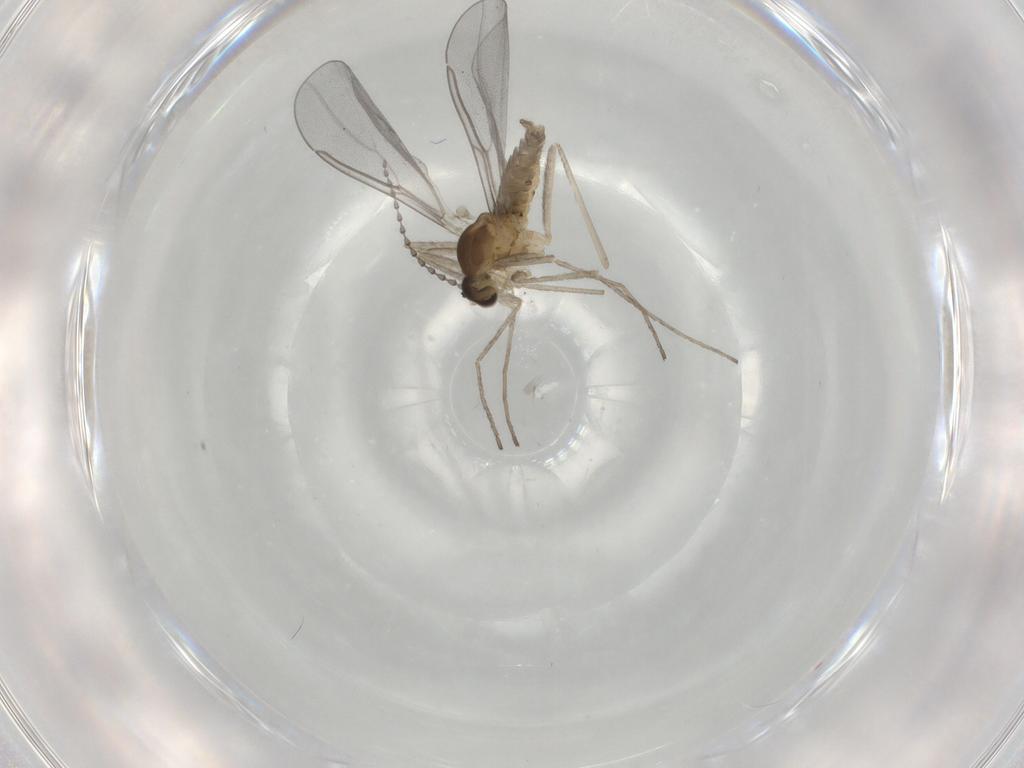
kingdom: Animalia
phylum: Arthropoda
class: Insecta
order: Diptera
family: Cecidomyiidae
